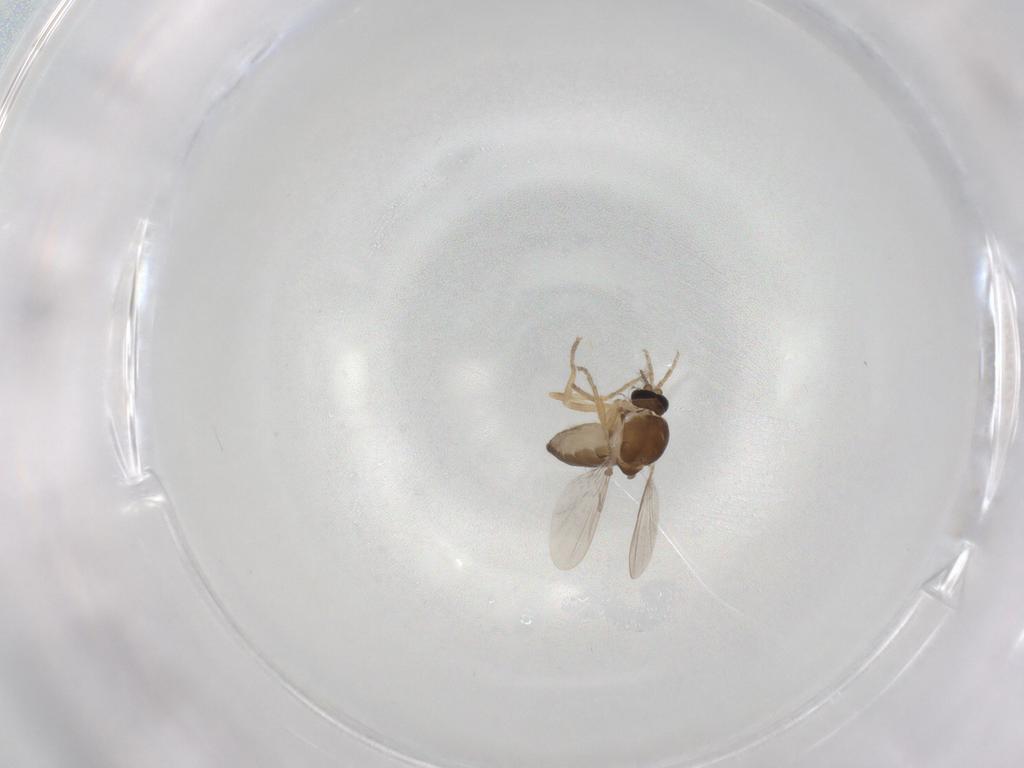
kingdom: Animalia
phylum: Arthropoda
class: Insecta
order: Diptera
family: Ceratopogonidae
